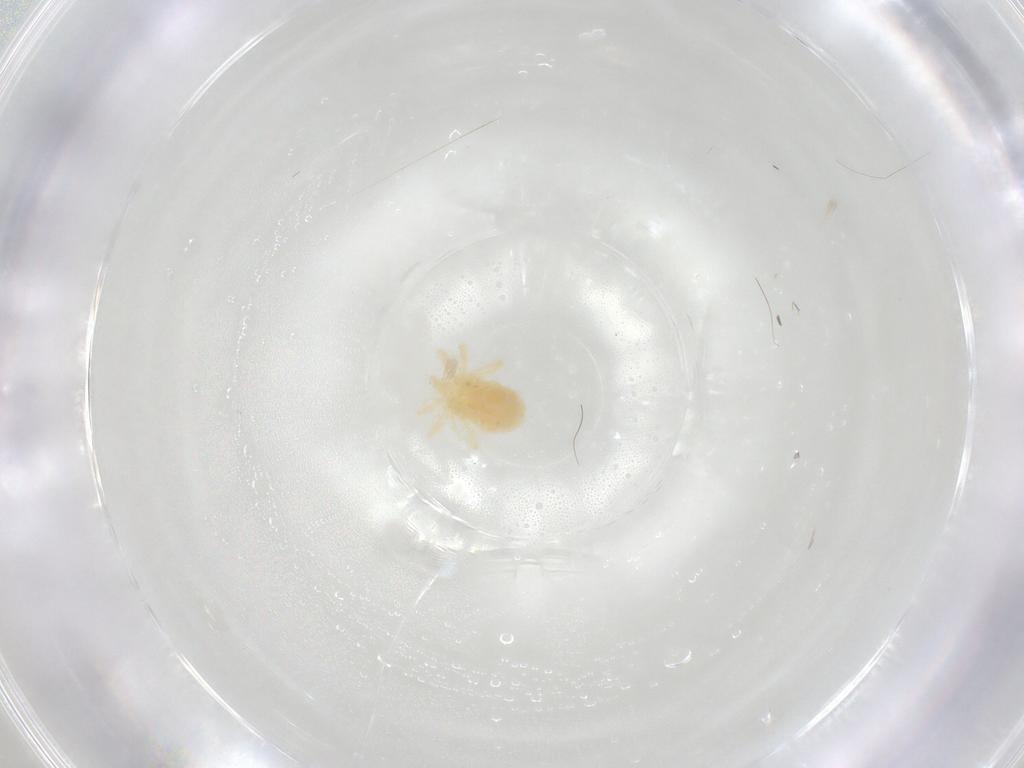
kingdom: Animalia
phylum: Arthropoda
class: Arachnida
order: Trombidiformes
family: Anystidae
